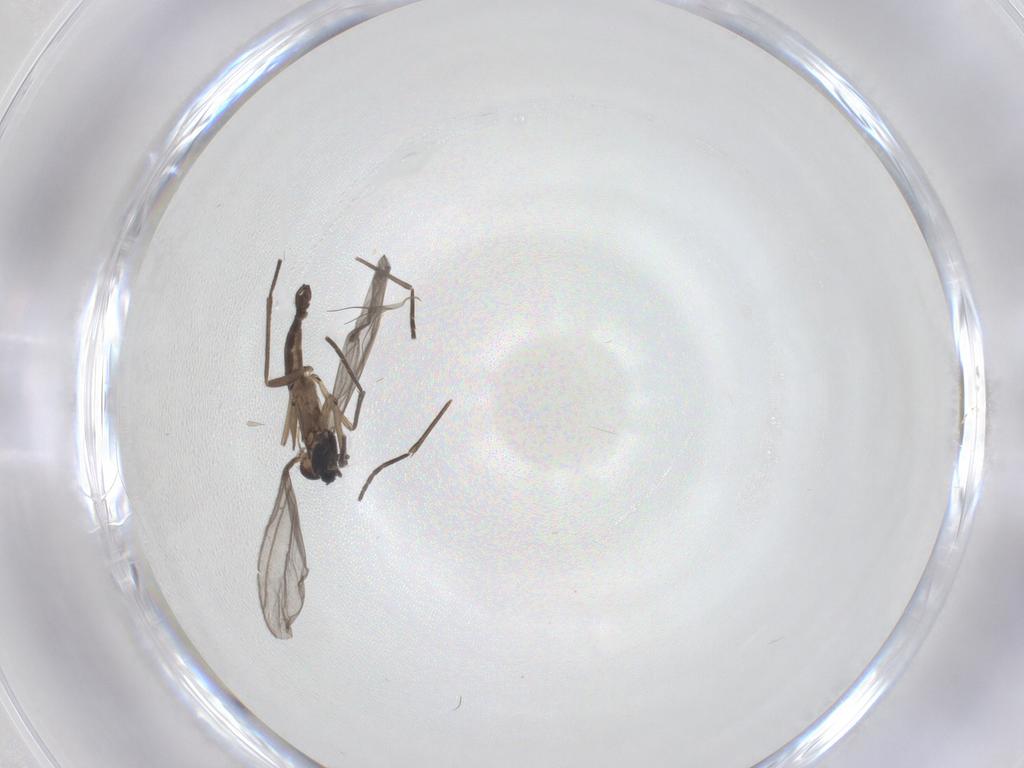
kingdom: Animalia
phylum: Arthropoda
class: Insecta
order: Diptera
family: Sciaridae
